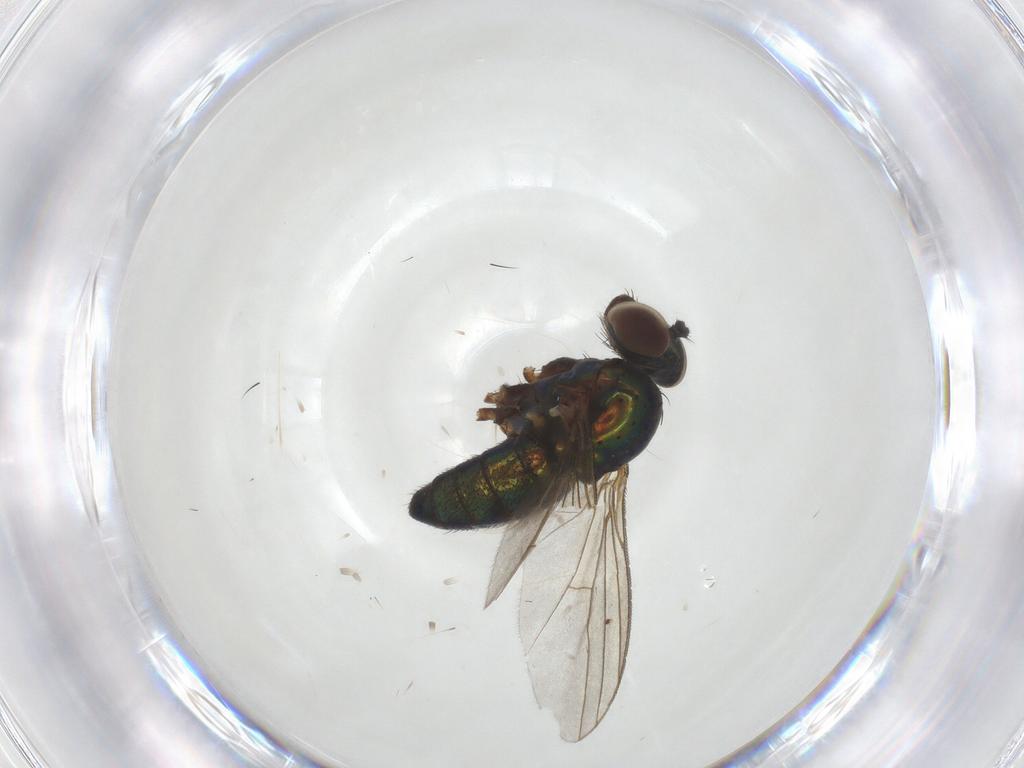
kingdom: Animalia
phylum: Arthropoda
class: Insecta
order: Diptera
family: Dolichopodidae
